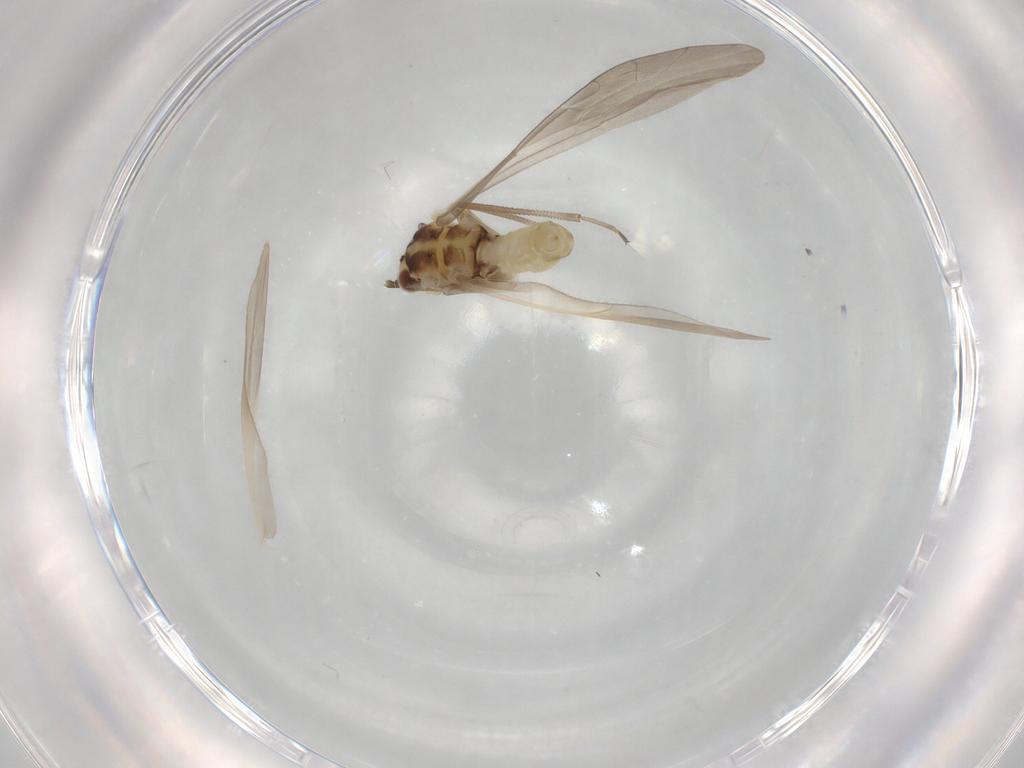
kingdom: Animalia
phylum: Arthropoda
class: Insecta
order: Psocodea
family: Caeciliusidae
